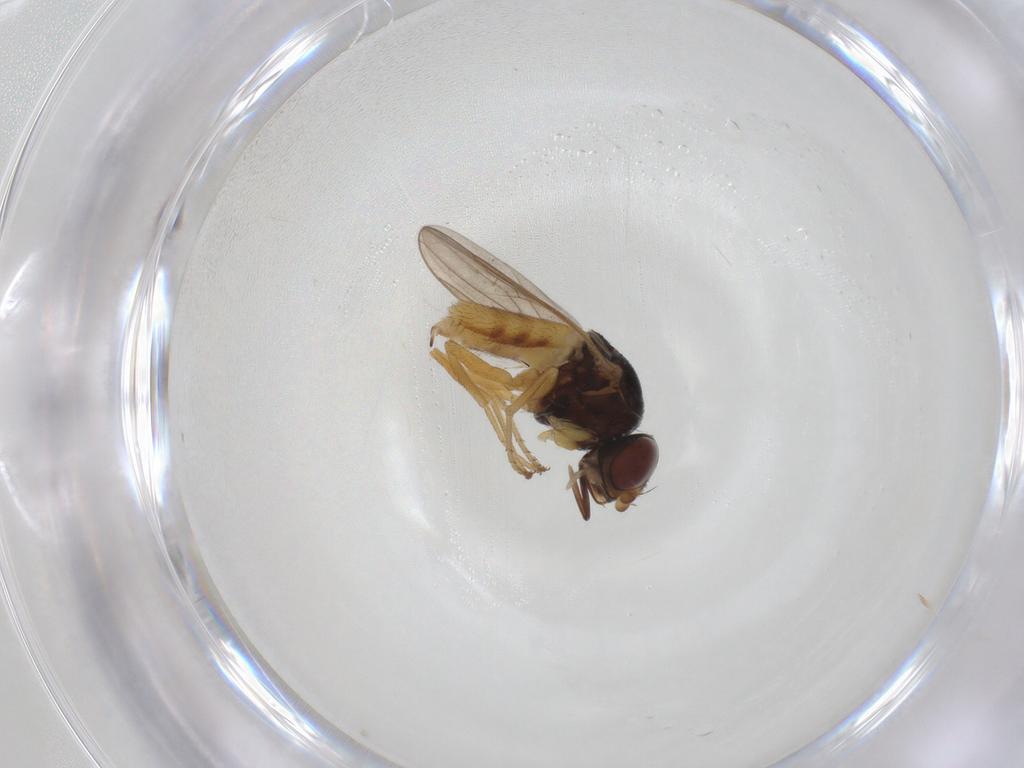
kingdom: Animalia
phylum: Arthropoda
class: Insecta
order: Diptera
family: Chloropidae
